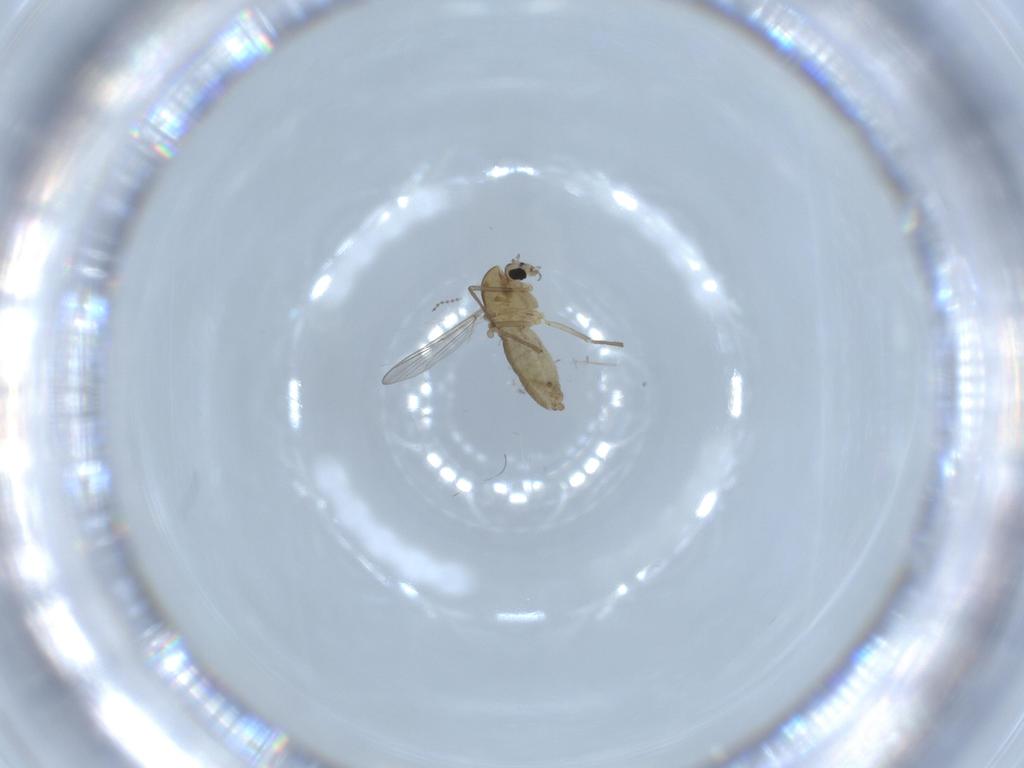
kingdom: Animalia
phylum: Arthropoda
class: Insecta
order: Diptera
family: Chironomidae
